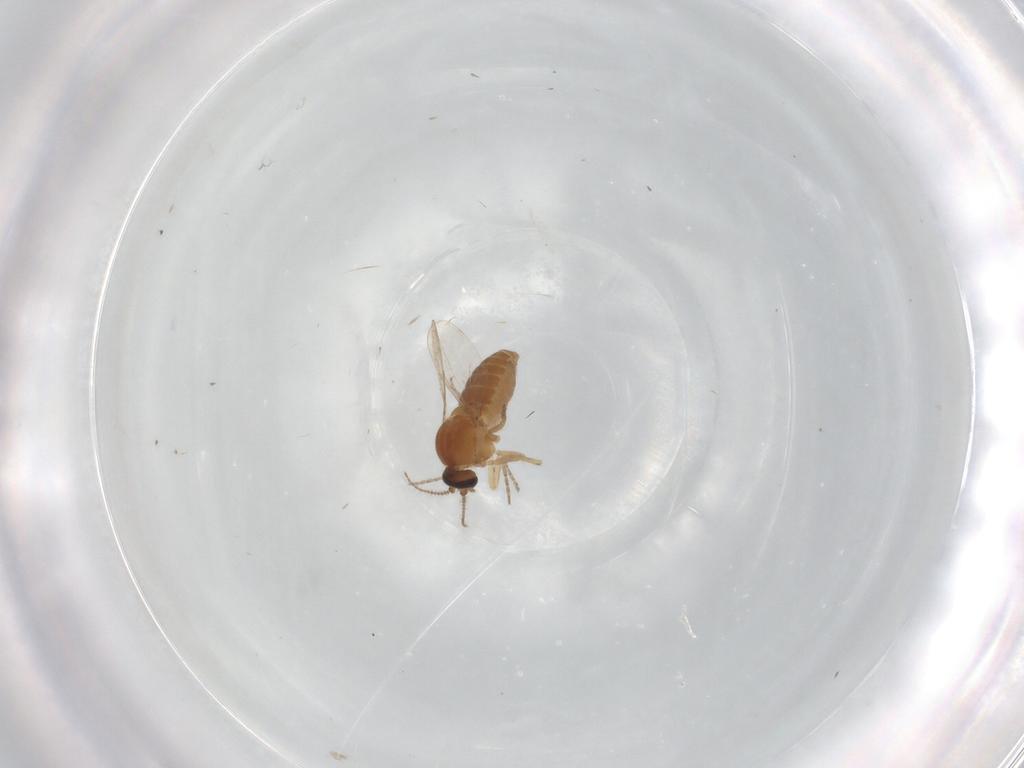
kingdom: Animalia
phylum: Arthropoda
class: Insecta
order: Diptera
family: Ceratopogonidae
